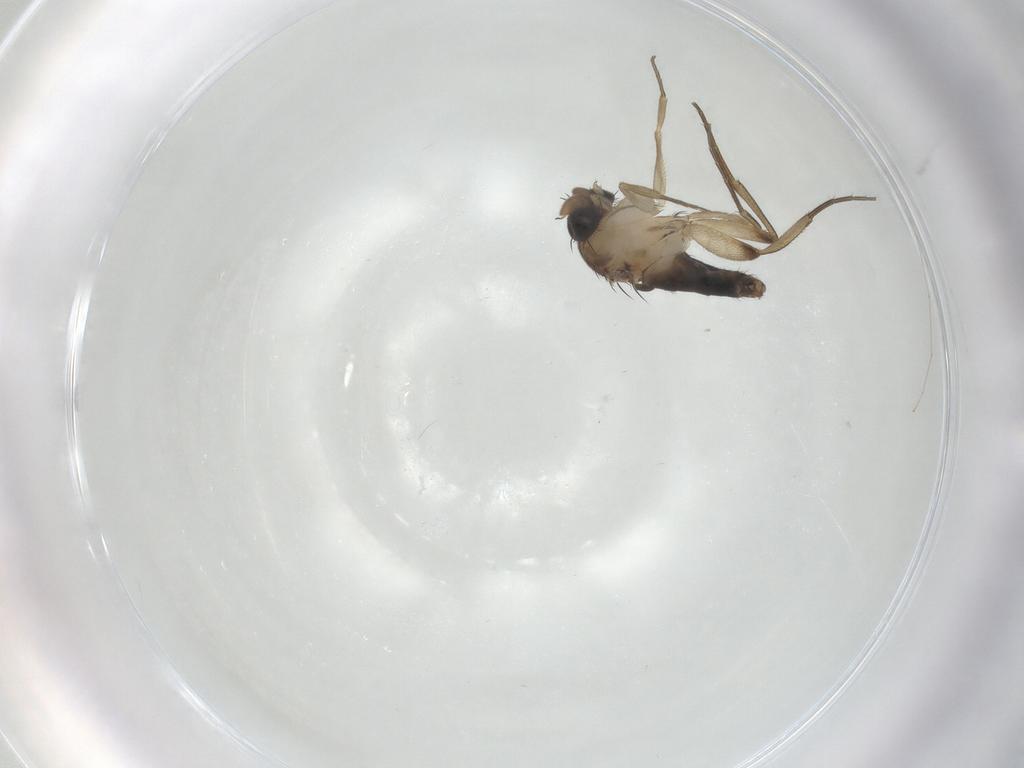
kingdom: Animalia
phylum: Arthropoda
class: Insecta
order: Diptera
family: Phoridae
